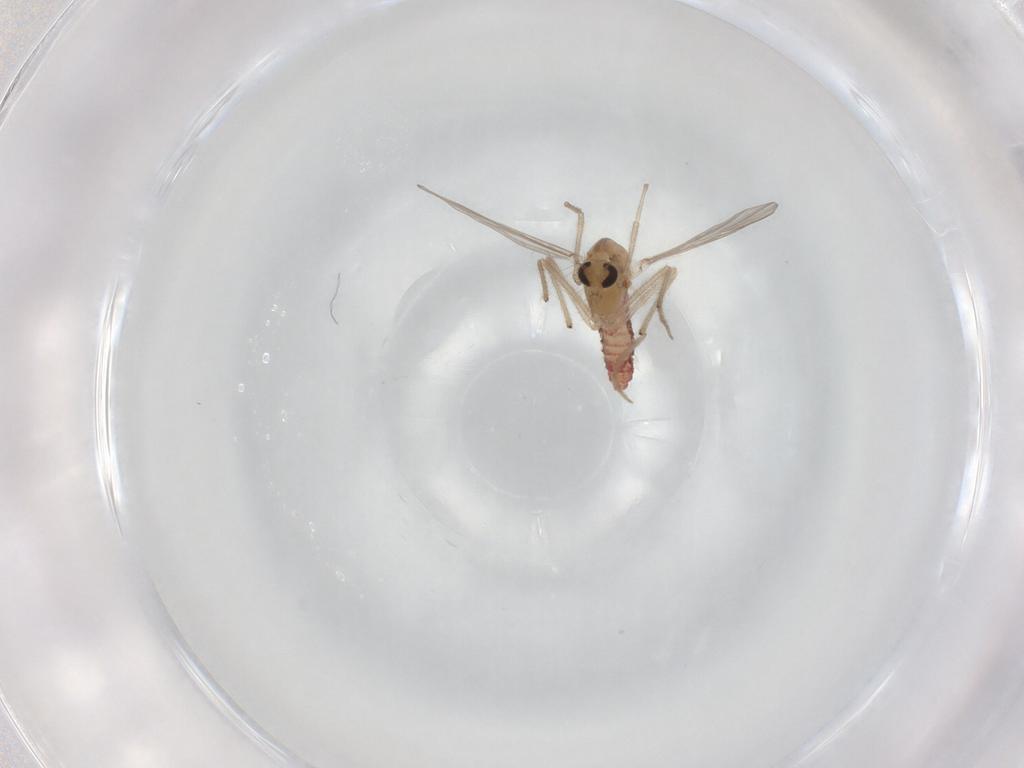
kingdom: Animalia
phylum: Arthropoda
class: Insecta
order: Diptera
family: Chironomidae
